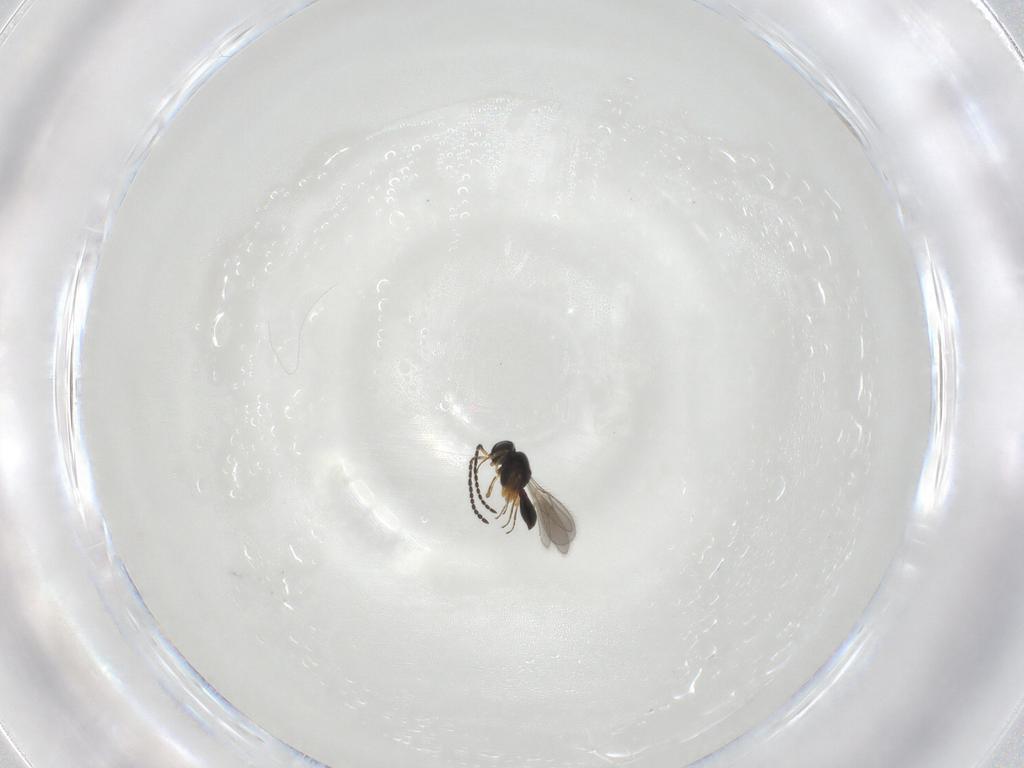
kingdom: Animalia
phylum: Arthropoda
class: Insecta
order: Hymenoptera
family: Scelionidae
